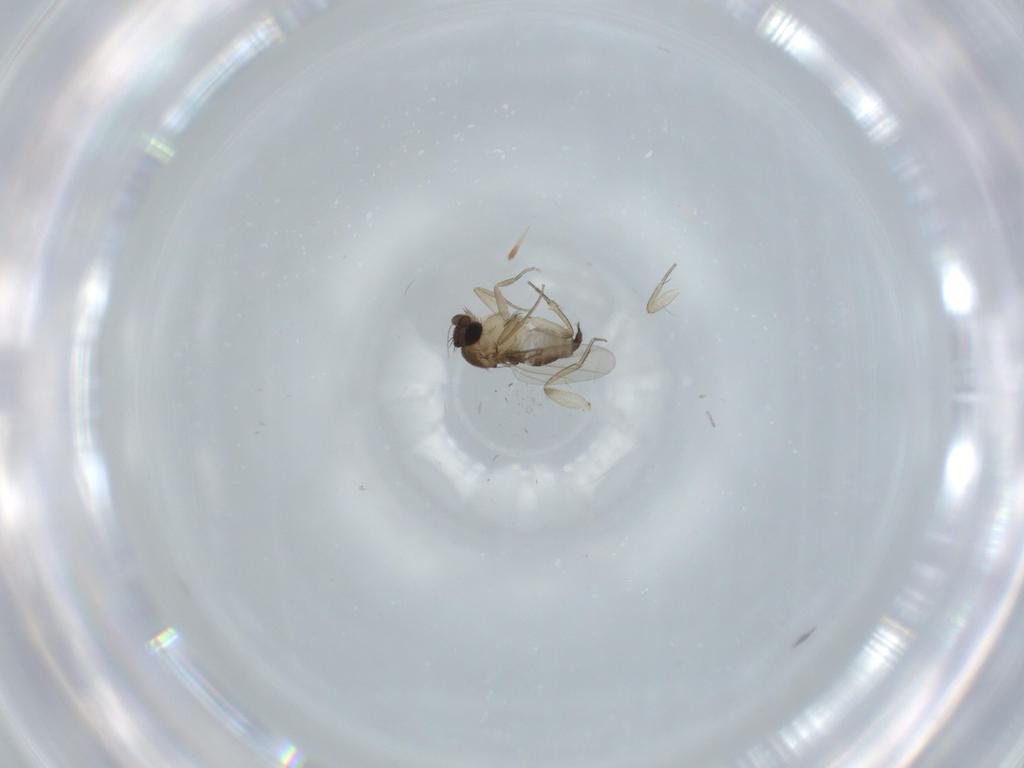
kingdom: Animalia
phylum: Arthropoda
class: Insecta
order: Diptera
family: Phoridae
